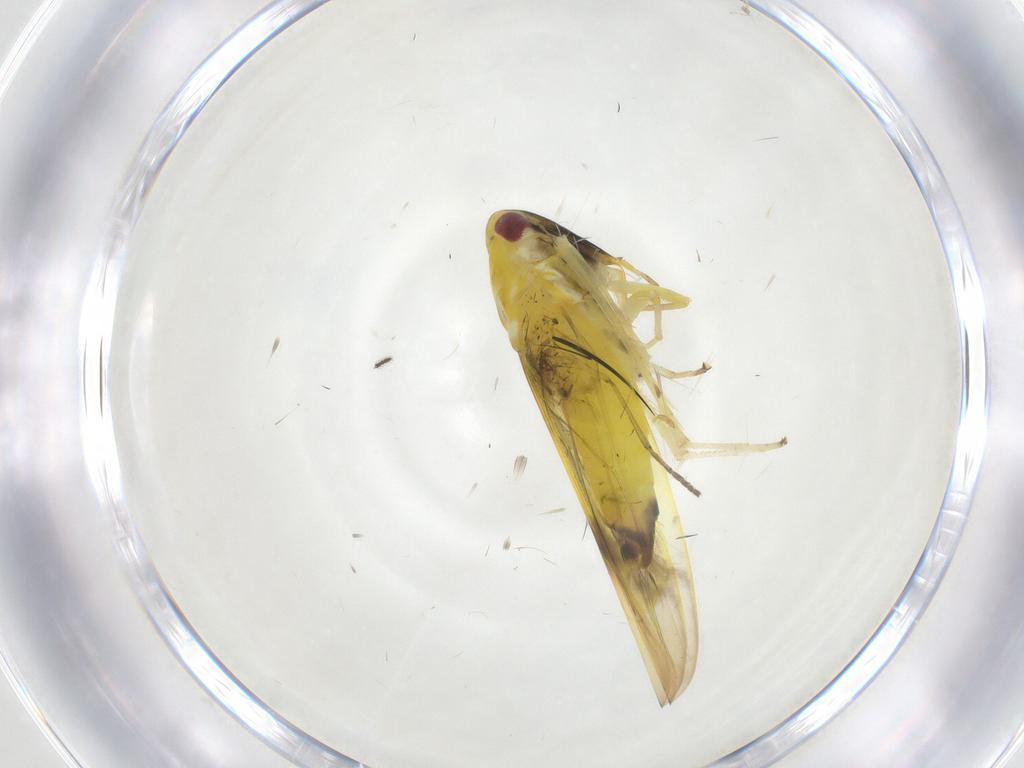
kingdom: Animalia
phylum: Arthropoda
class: Insecta
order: Hemiptera
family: Cicadellidae
